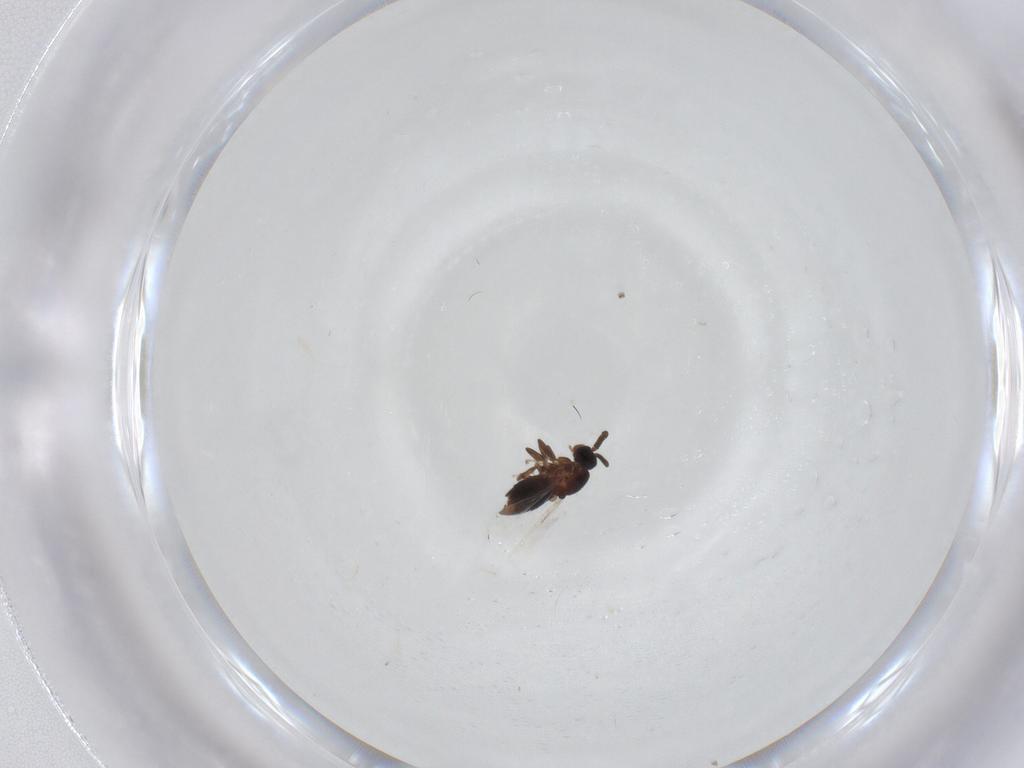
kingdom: Animalia
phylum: Arthropoda
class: Insecta
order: Diptera
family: Scatopsidae
